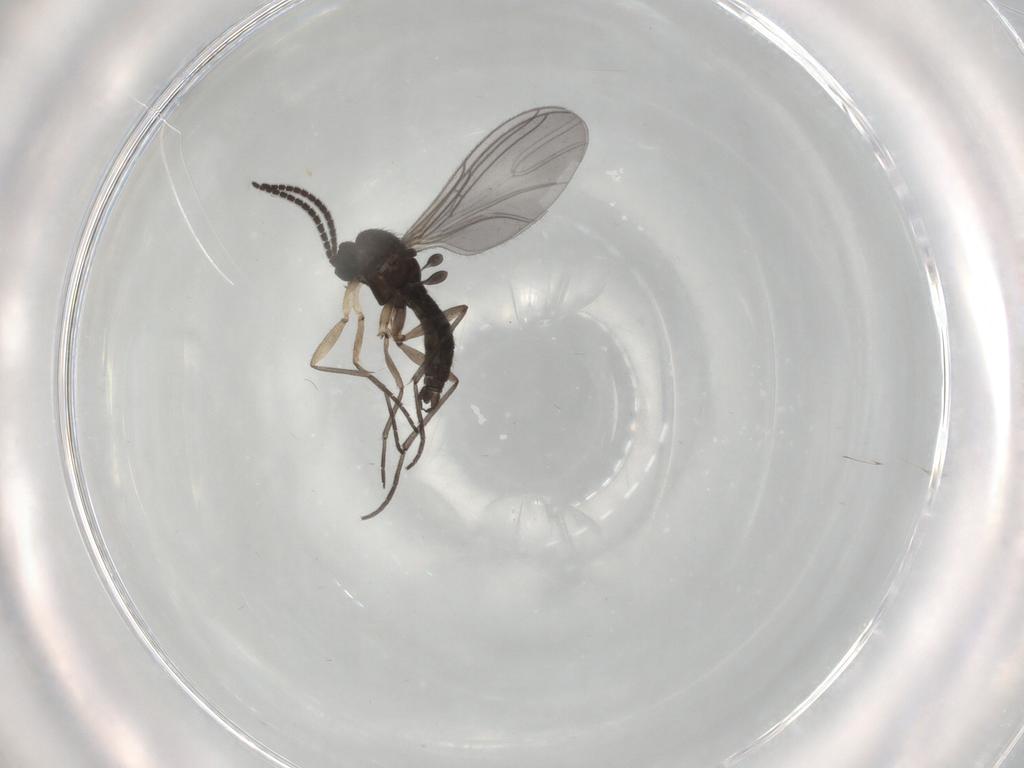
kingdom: Animalia
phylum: Arthropoda
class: Insecta
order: Diptera
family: Sciaridae
